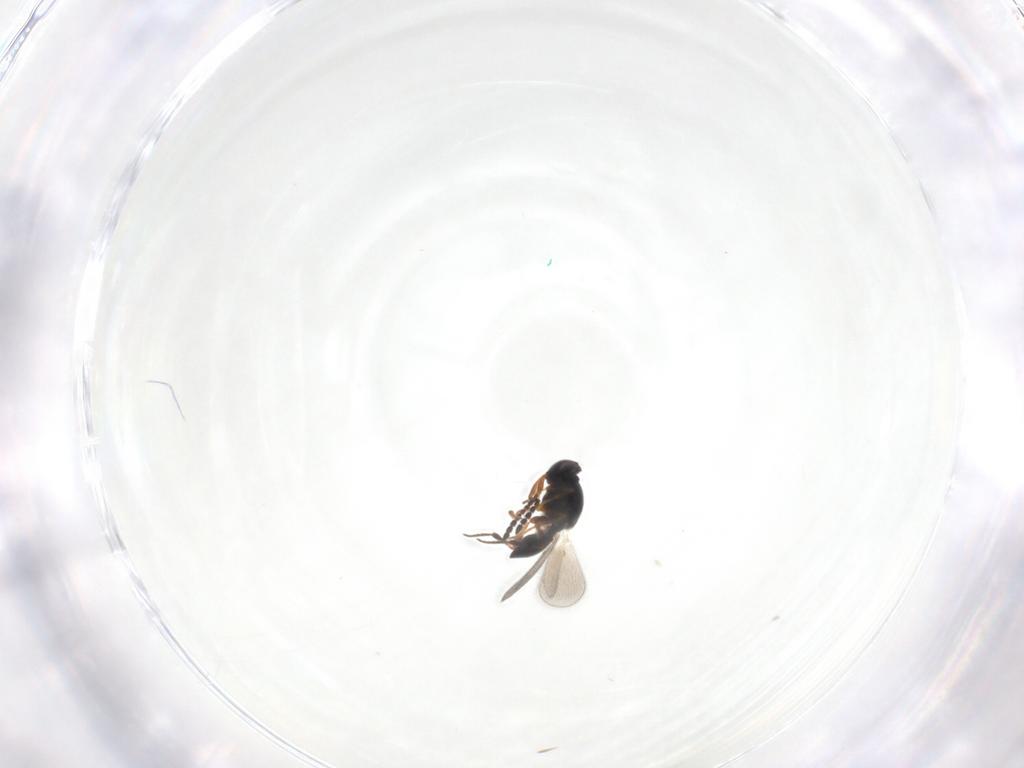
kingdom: Animalia
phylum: Arthropoda
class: Insecta
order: Hymenoptera
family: Platygastridae
